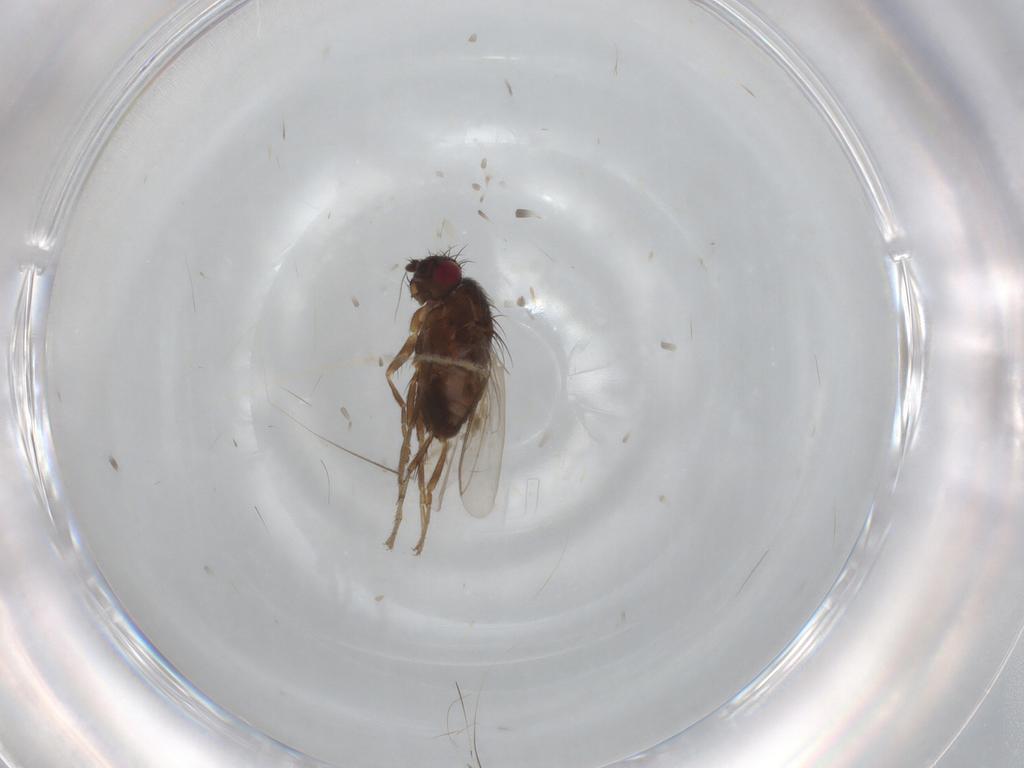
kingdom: Animalia
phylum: Arthropoda
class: Insecta
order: Diptera
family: Sphaeroceridae
